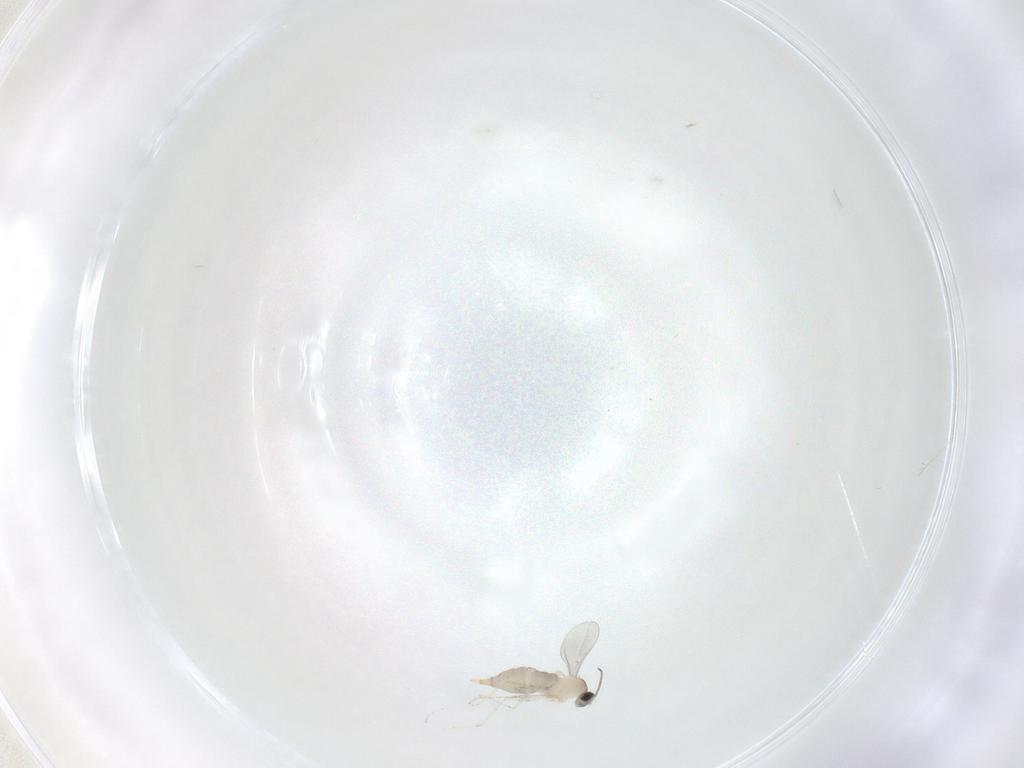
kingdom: Animalia
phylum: Arthropoda
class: Insecta
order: Diptera
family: Cecidomyiidae
